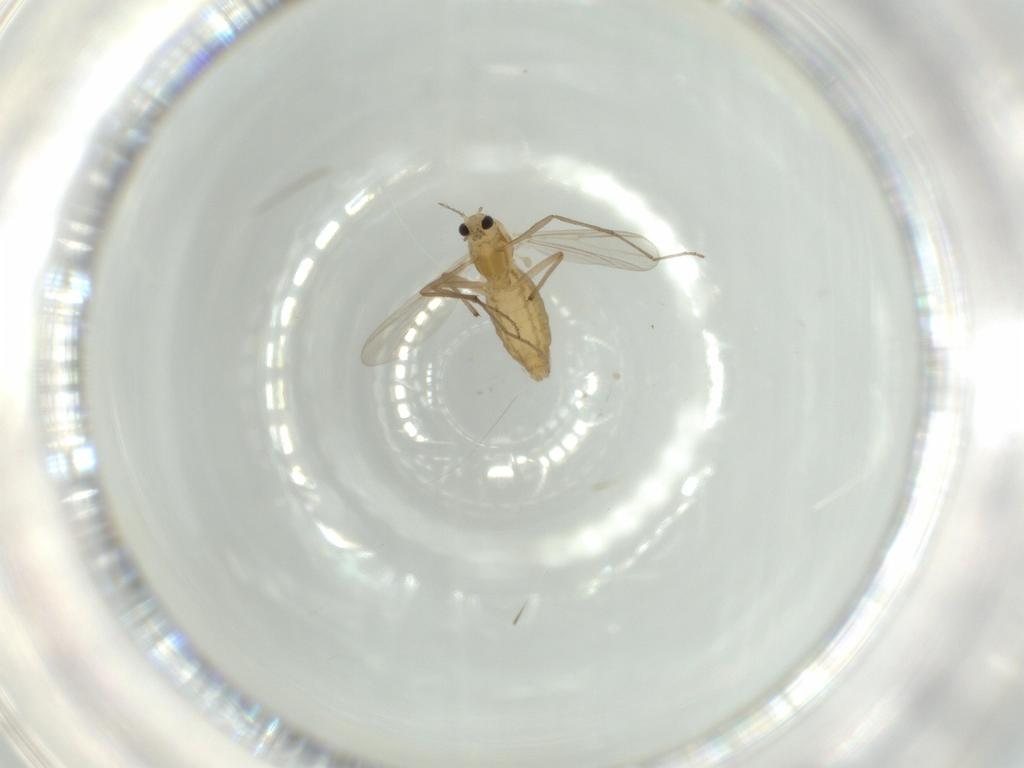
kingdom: Animalia
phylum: Arthropoda
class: Insecta
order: Diptera
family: Chironomidae
